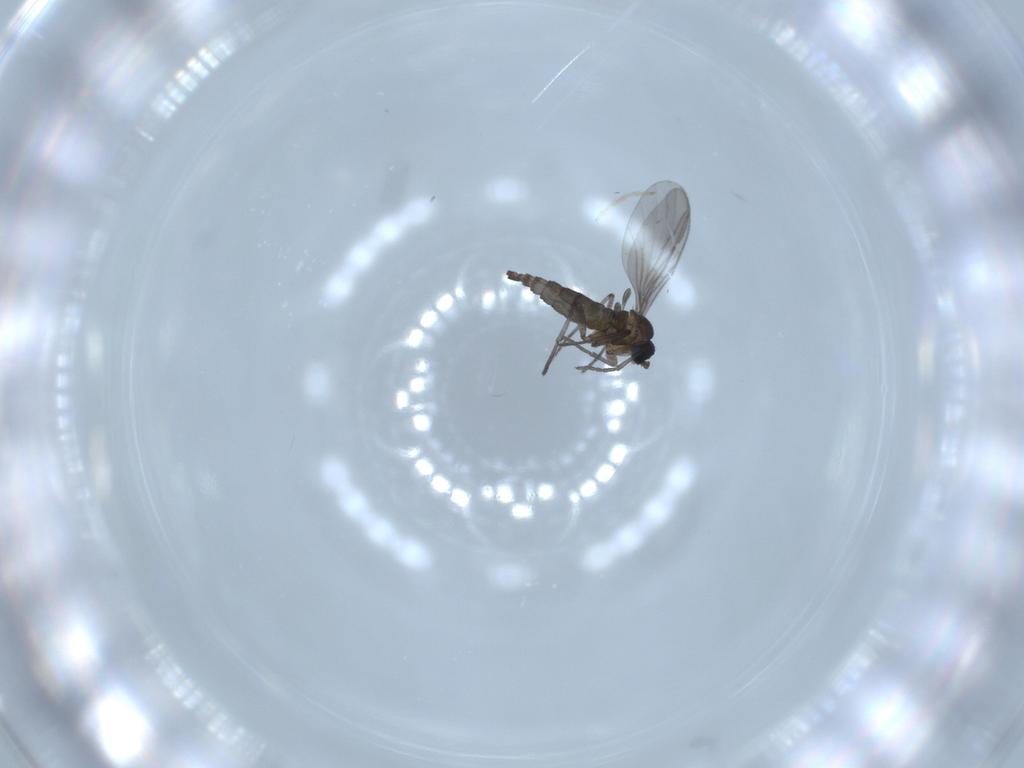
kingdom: Animalia
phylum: Arthropoda
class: Insecta
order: Diptera
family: Chironomidae
